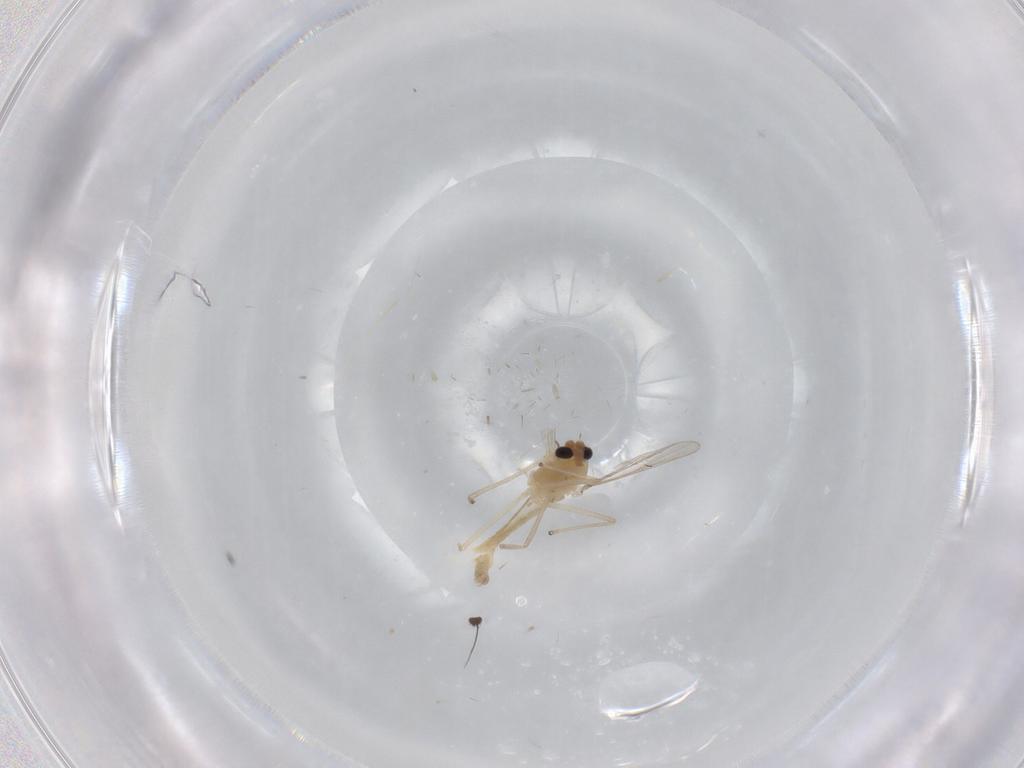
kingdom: Animalia
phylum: Arthropoda
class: Insecta
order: Diptera
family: Chironomidae
